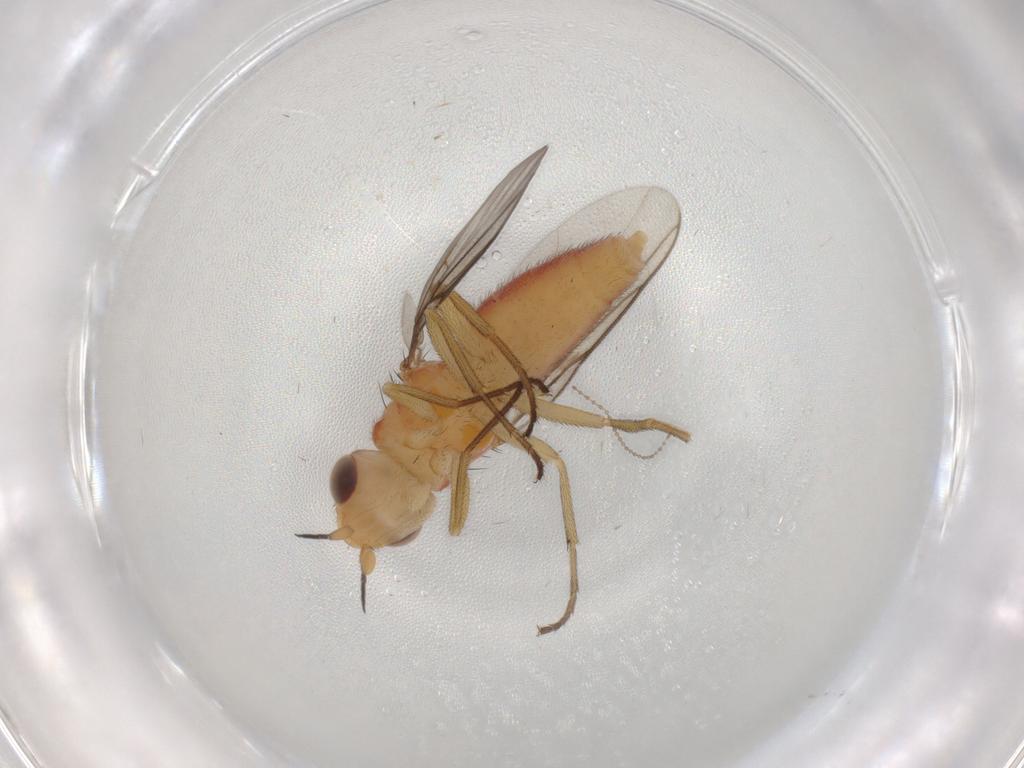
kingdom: Animalia
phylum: Arthropoda
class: Insecta
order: Diptera
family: Chloropidae
